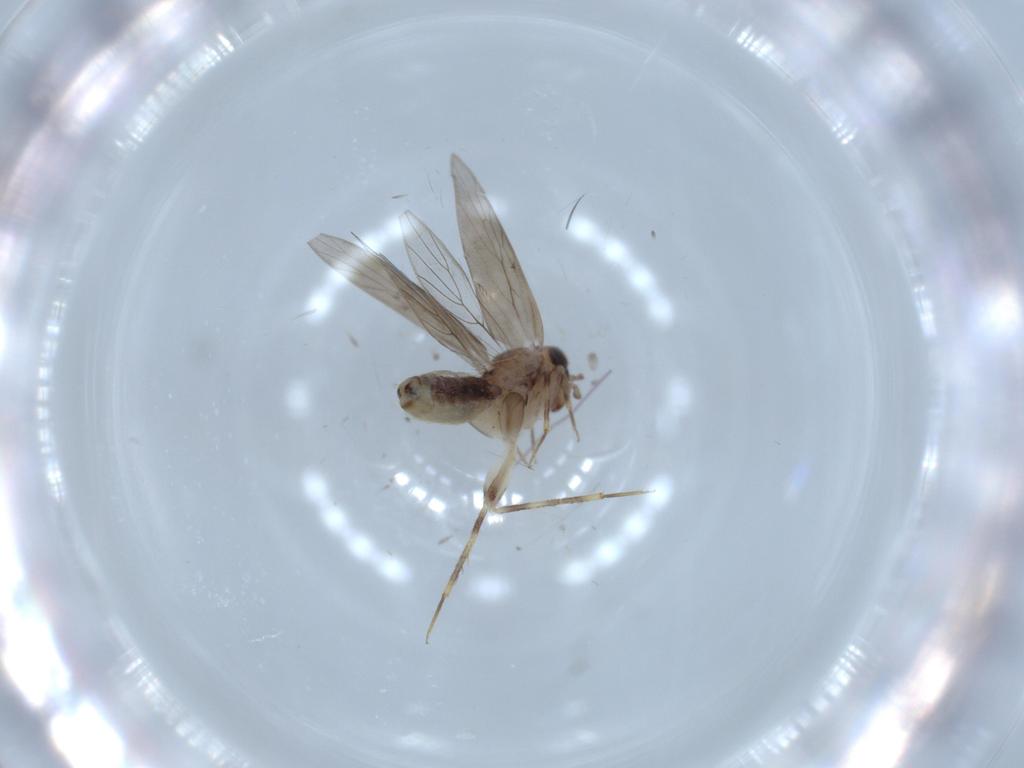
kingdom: Animalia
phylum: Arthropoda
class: Insecta
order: Psocodea
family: Lepidopsocidae
